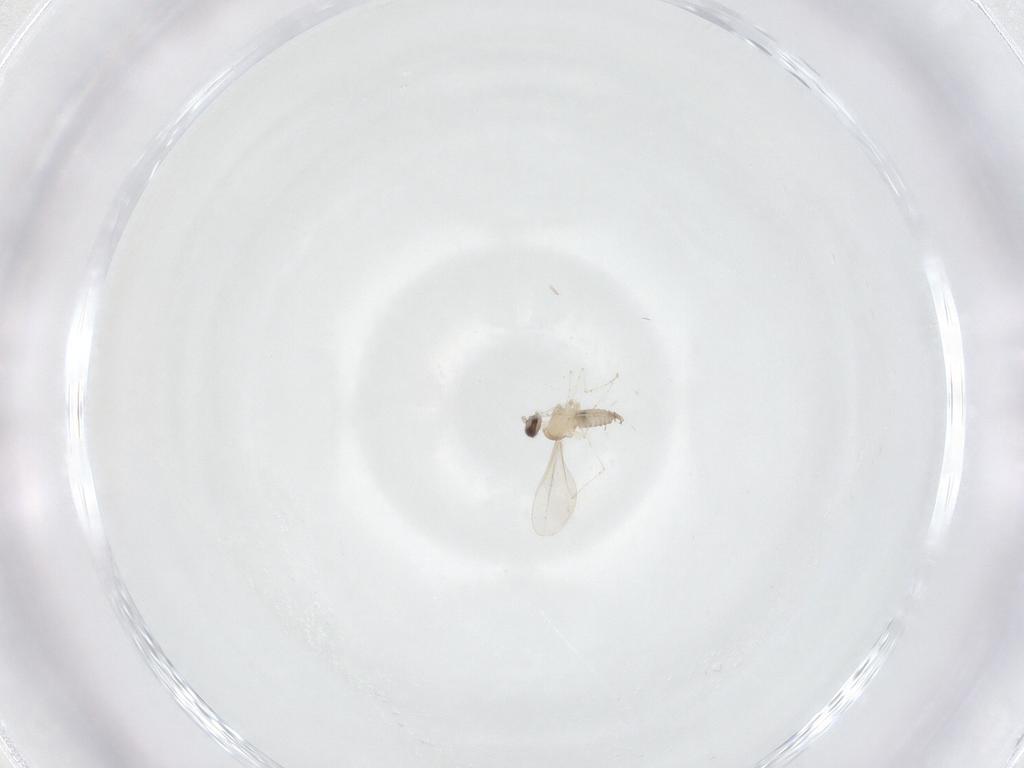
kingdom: Animalia
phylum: Arthropoda
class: Insecta
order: Diptera
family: Cecidomyiidae
